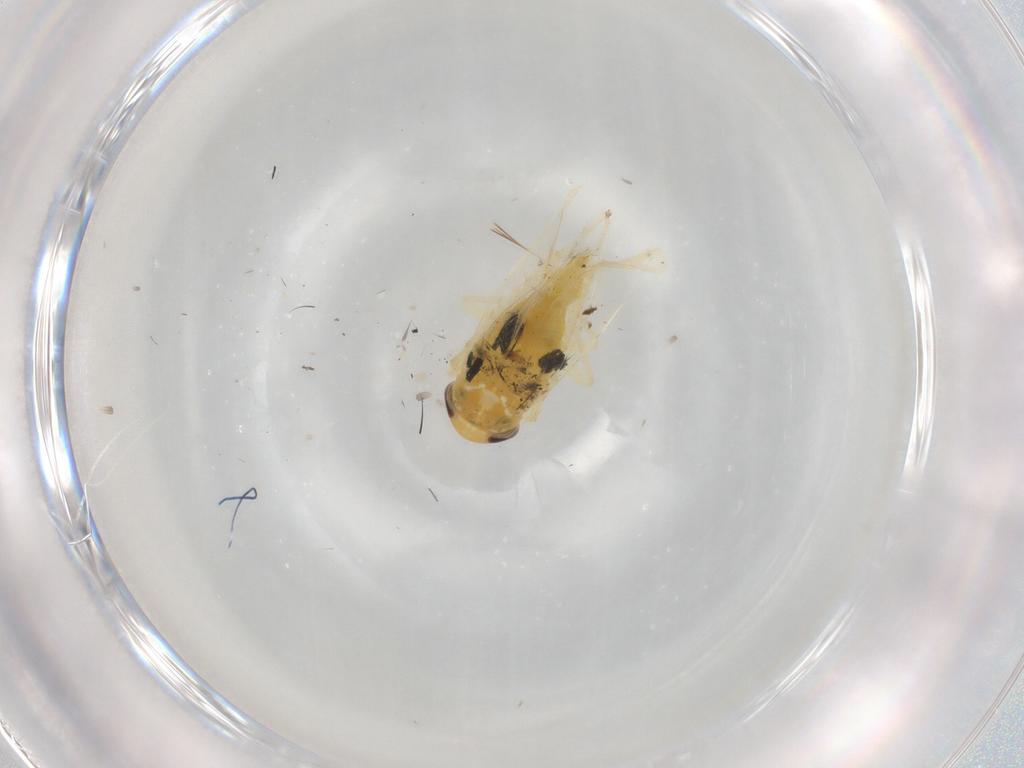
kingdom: Animalia
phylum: Arthropoda
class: Insecta
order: Hemiptera
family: Cicadellidae
